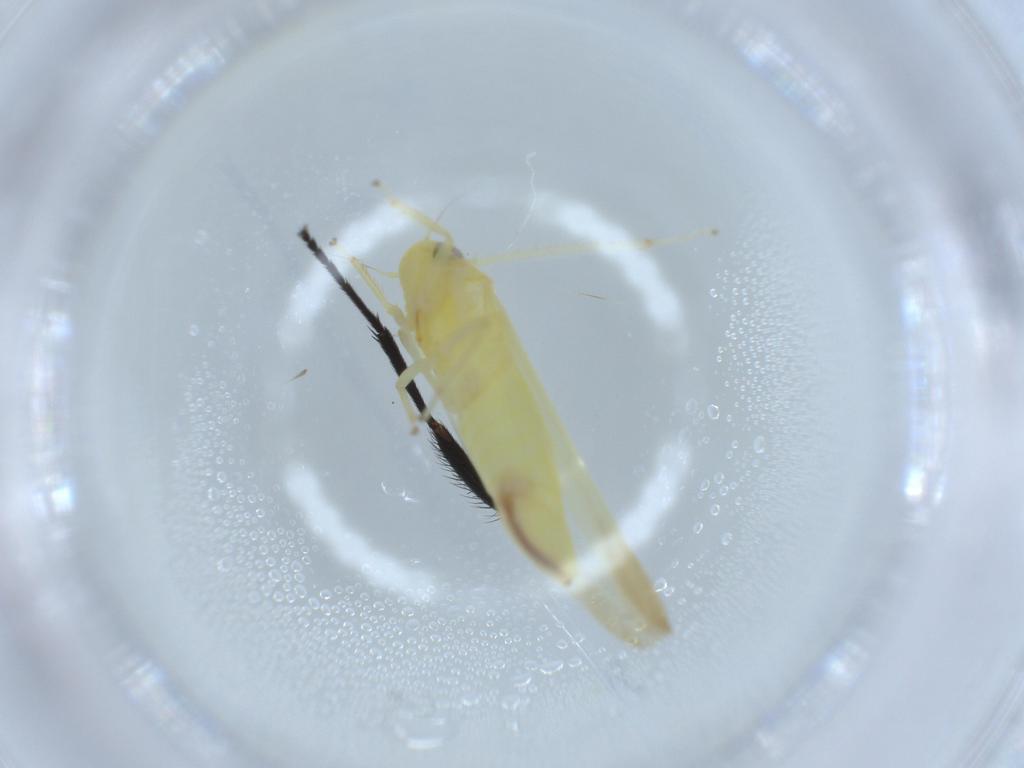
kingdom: Animalia
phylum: Arthropoda
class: Insecta
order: Hemiptera
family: Cicadellidae
